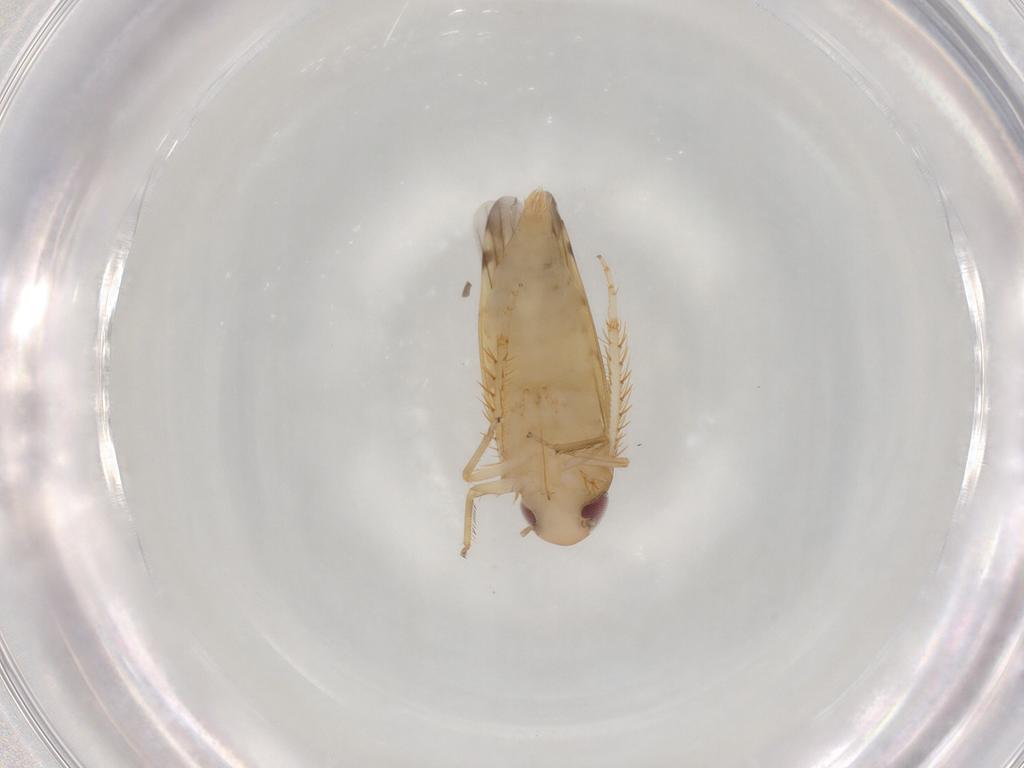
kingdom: Animalia
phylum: Arthropoda
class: Insecta
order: Hemiptera
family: Cicadellidae
